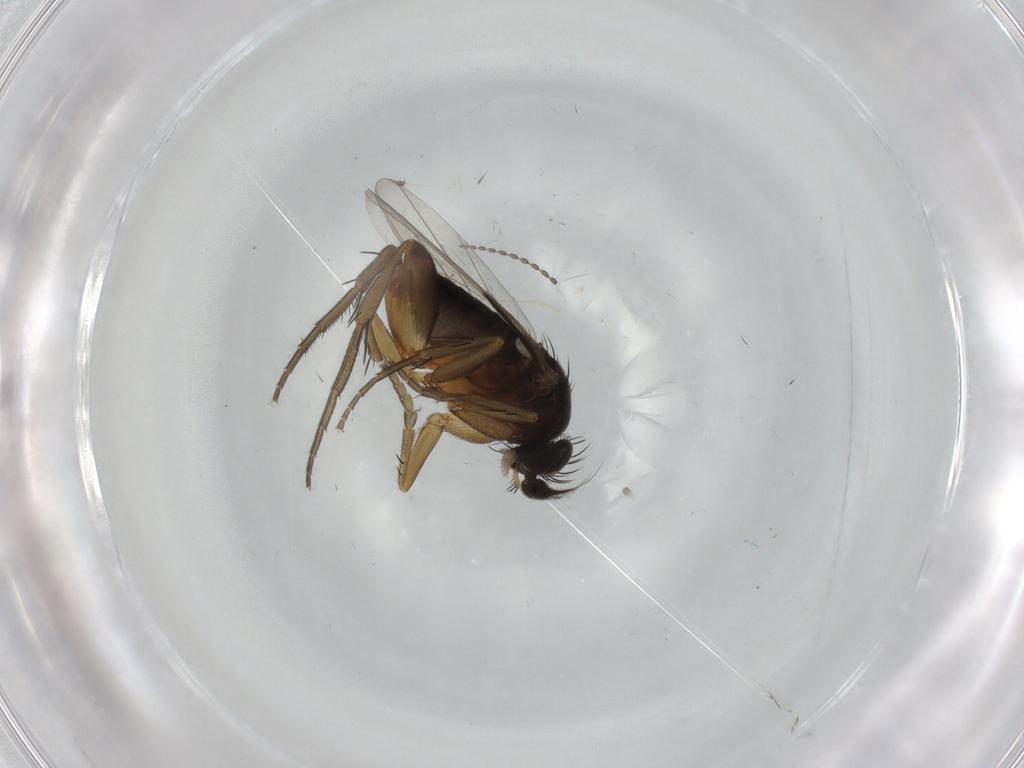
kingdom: Animalia
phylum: Arthropoda
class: Insecta
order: Diptera
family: Phoridae
